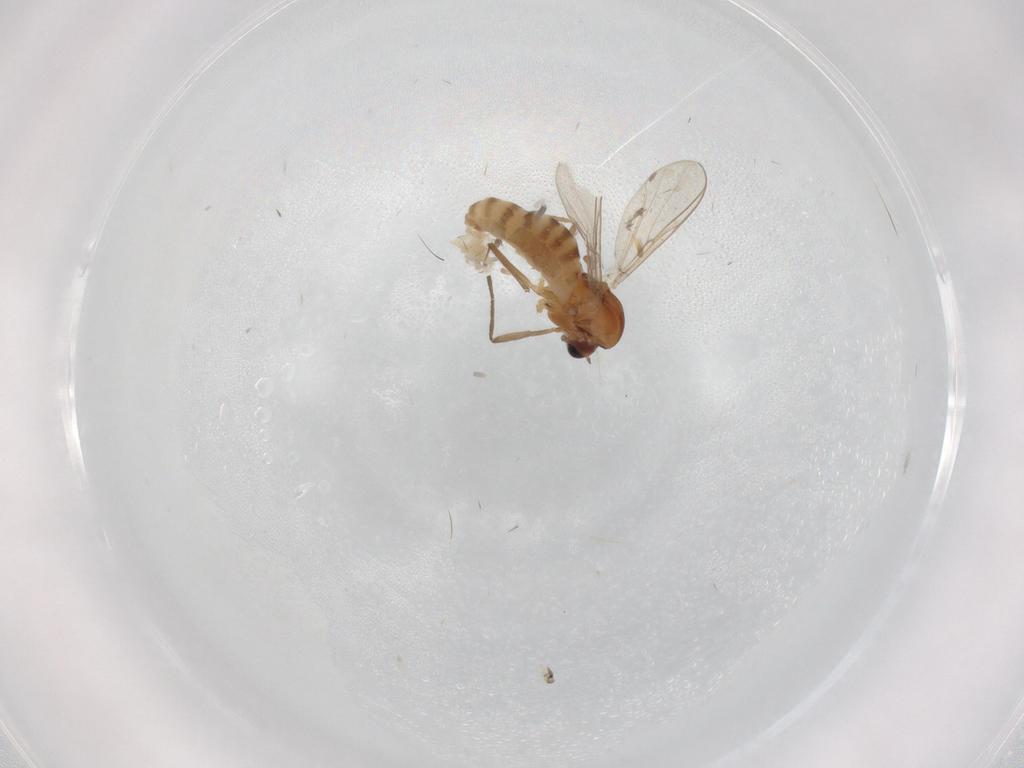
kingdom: Animalia
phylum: Arthropoda
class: Insecta
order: Diptera
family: Chironomidae
